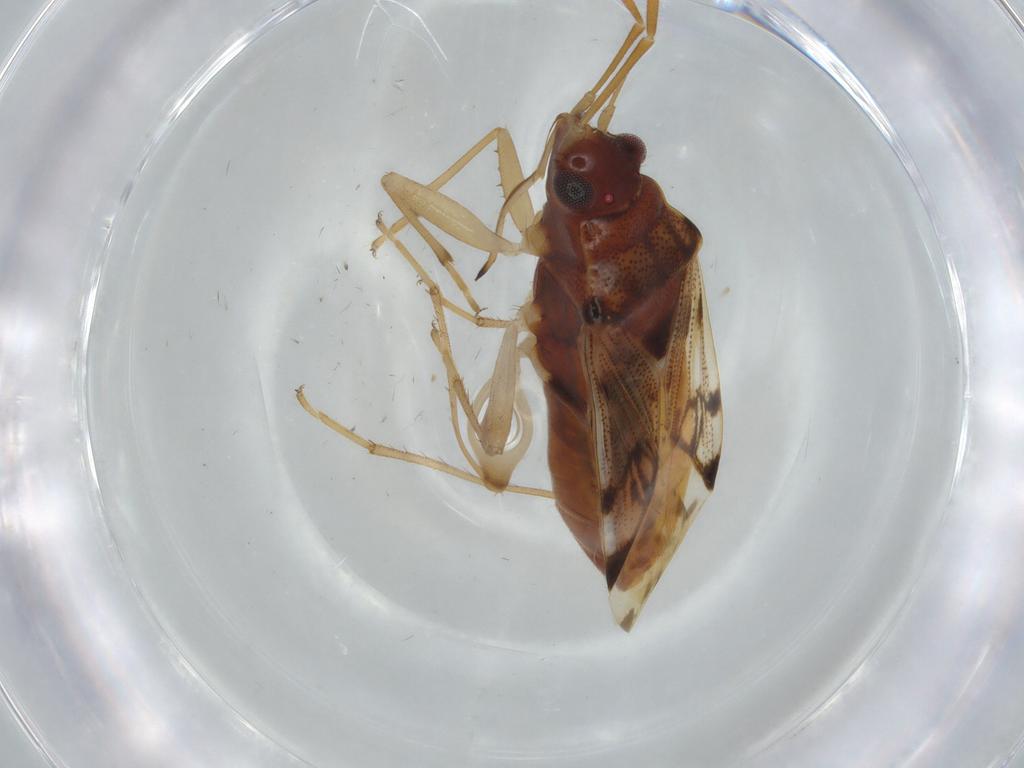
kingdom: Animalia
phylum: Arthropoda
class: Insecta
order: Hemiptera
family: Rhyparochromidae
